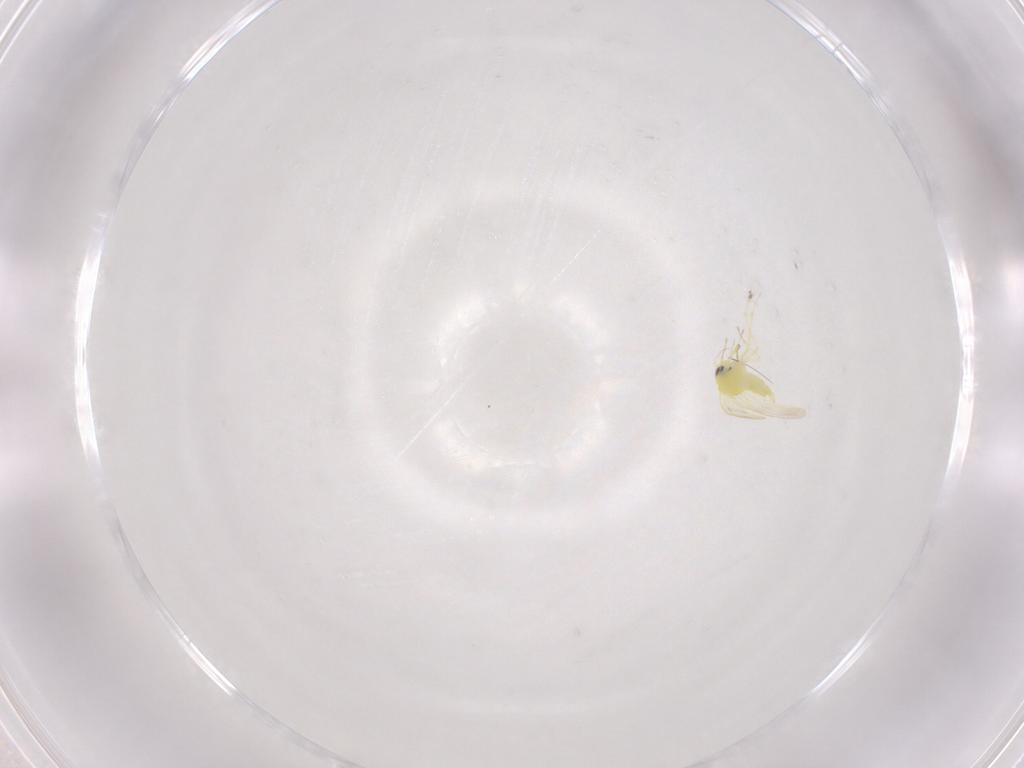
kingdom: Animalia
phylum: Arthropoda
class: Insecta
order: Hemiptera
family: Aleyrodidae
